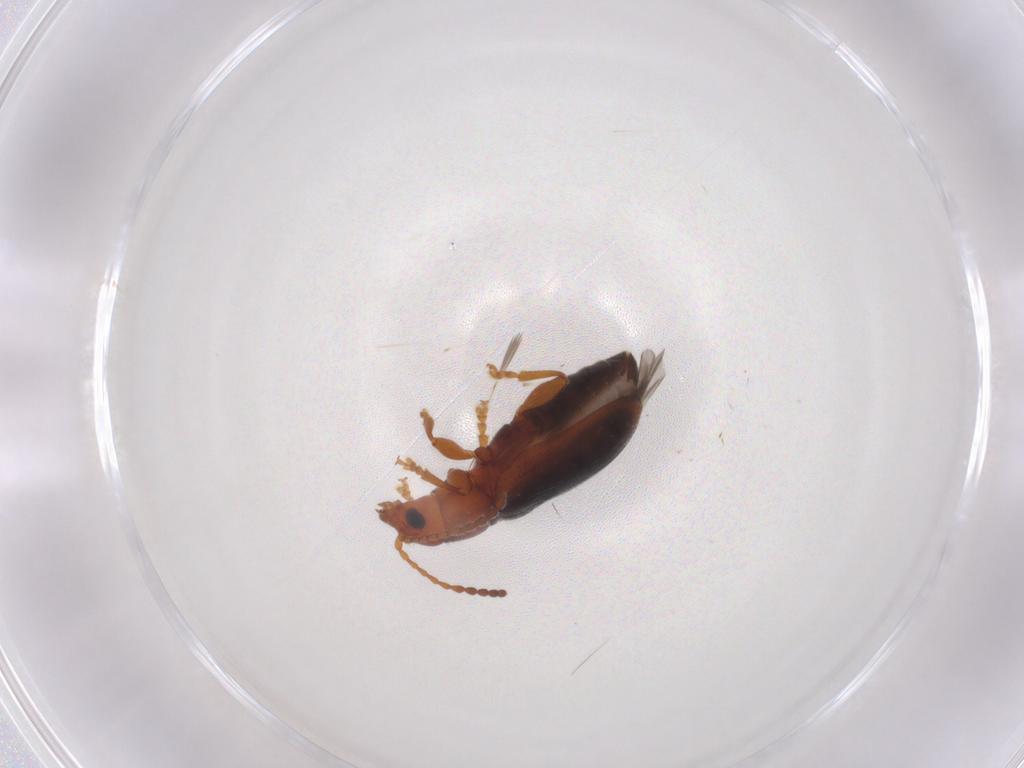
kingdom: Animalia
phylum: Arthropoda
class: Insecta
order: Coleoptera
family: Chrysomelidae
